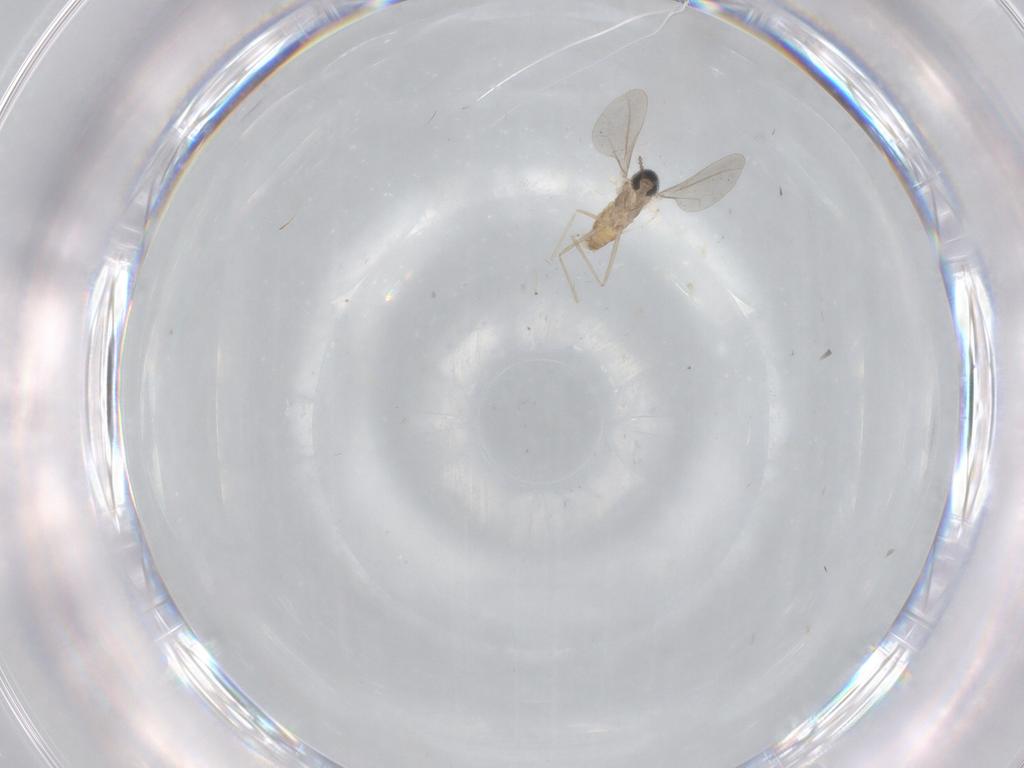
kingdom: Animalia
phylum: Arthropoda
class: Insecta
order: Diptera
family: Cecidomyiidae
